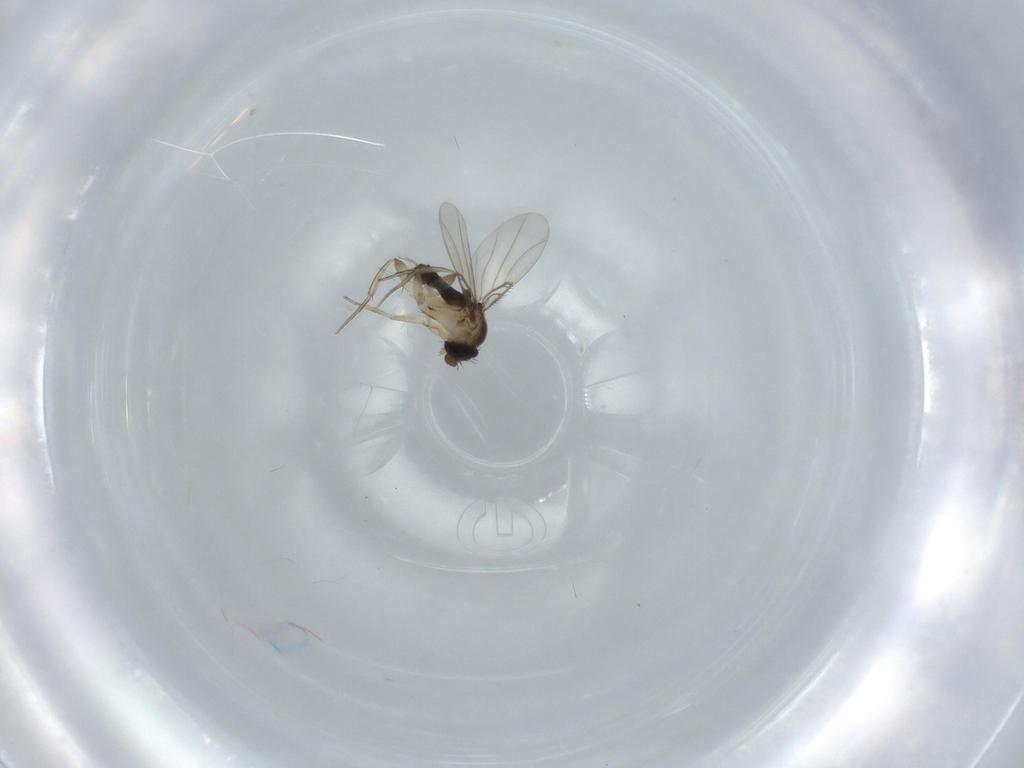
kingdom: Animalia
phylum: Arthropoda
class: Insecta
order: Diptera
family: Phoridae
